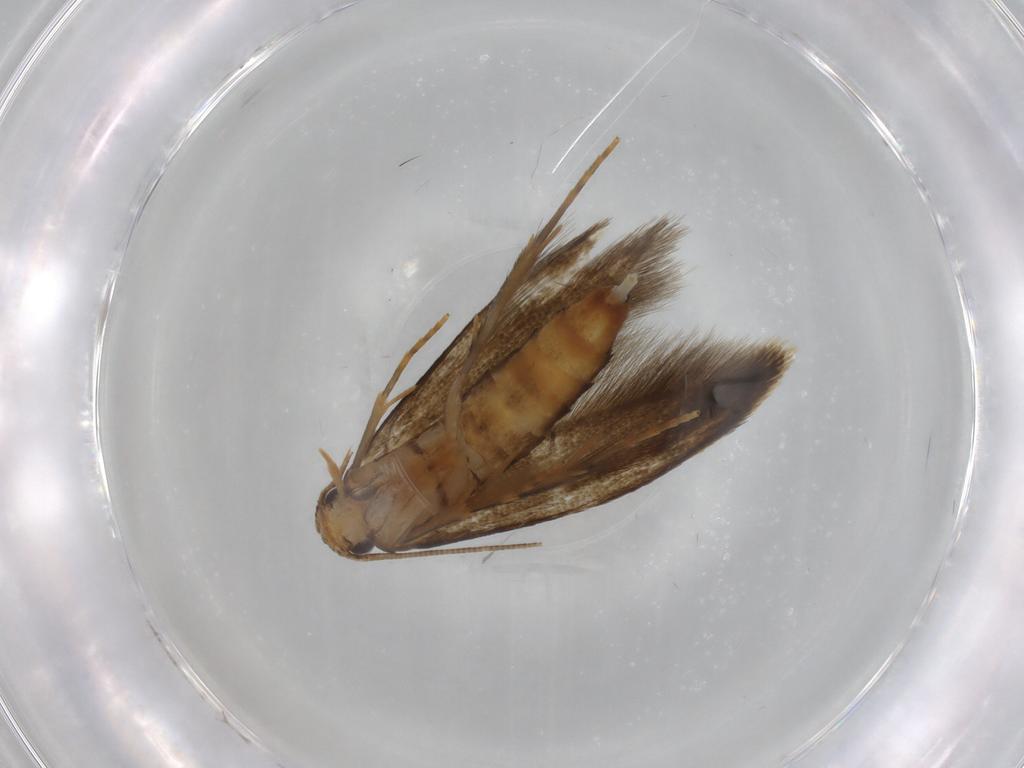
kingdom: Animalia
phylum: Arthropoda
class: Insecta
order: Lepidoptera
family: Tineidae
